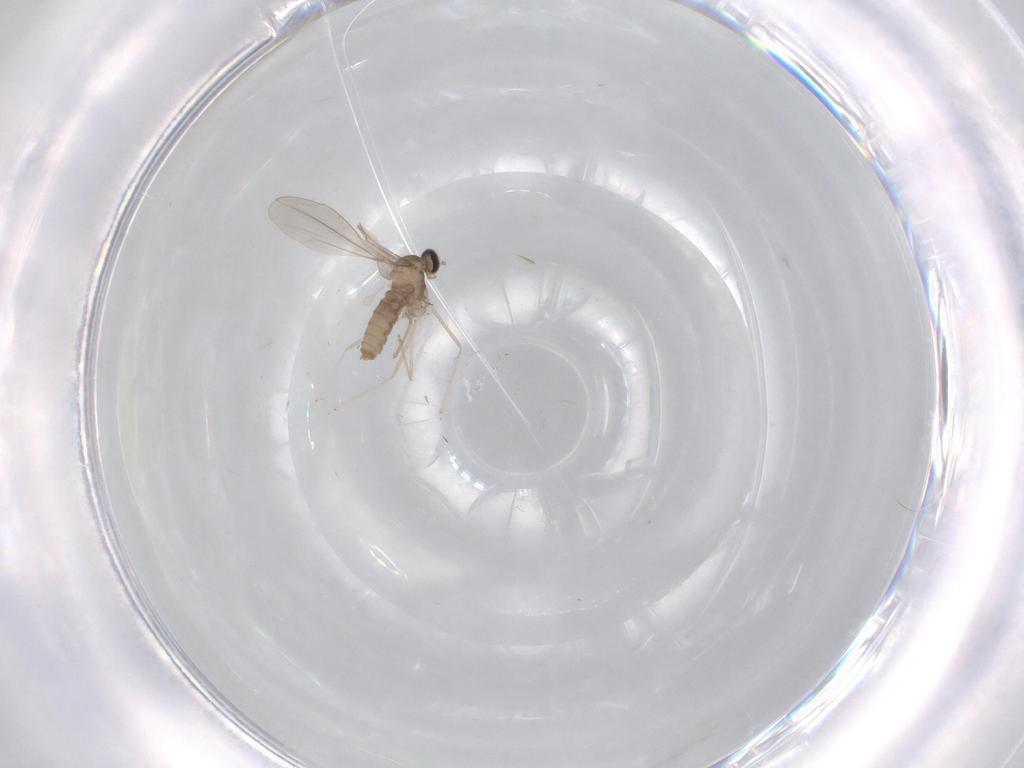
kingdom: Animalia
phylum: Arthropoda
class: Insecta
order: Diptera
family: Hybotidae
